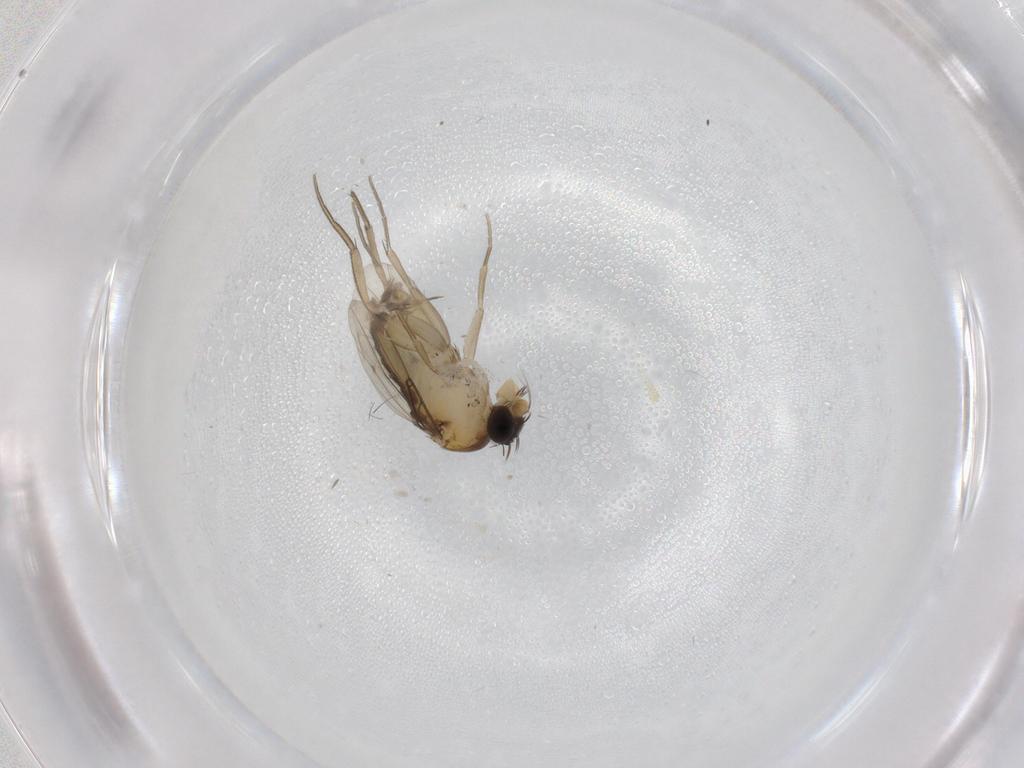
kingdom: Animalia
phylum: Arthropoda
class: Insecta
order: Diptera
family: Phoridae
